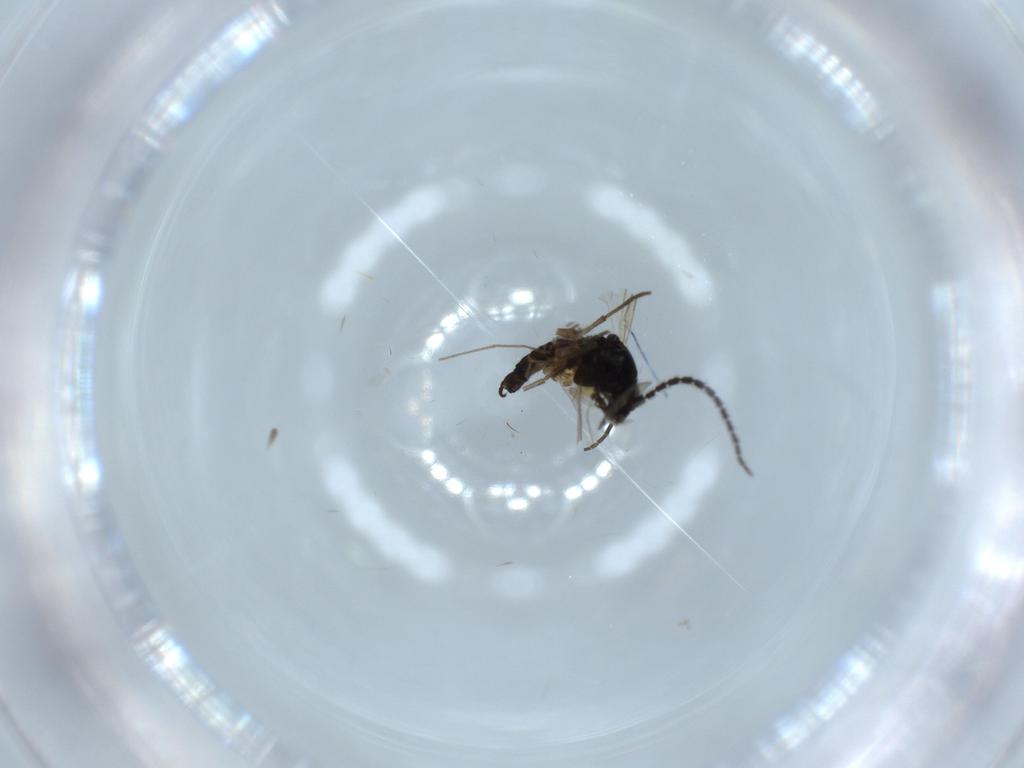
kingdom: Animalia
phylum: Arthropoda
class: Insecta
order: Diptera
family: Sciaridae
